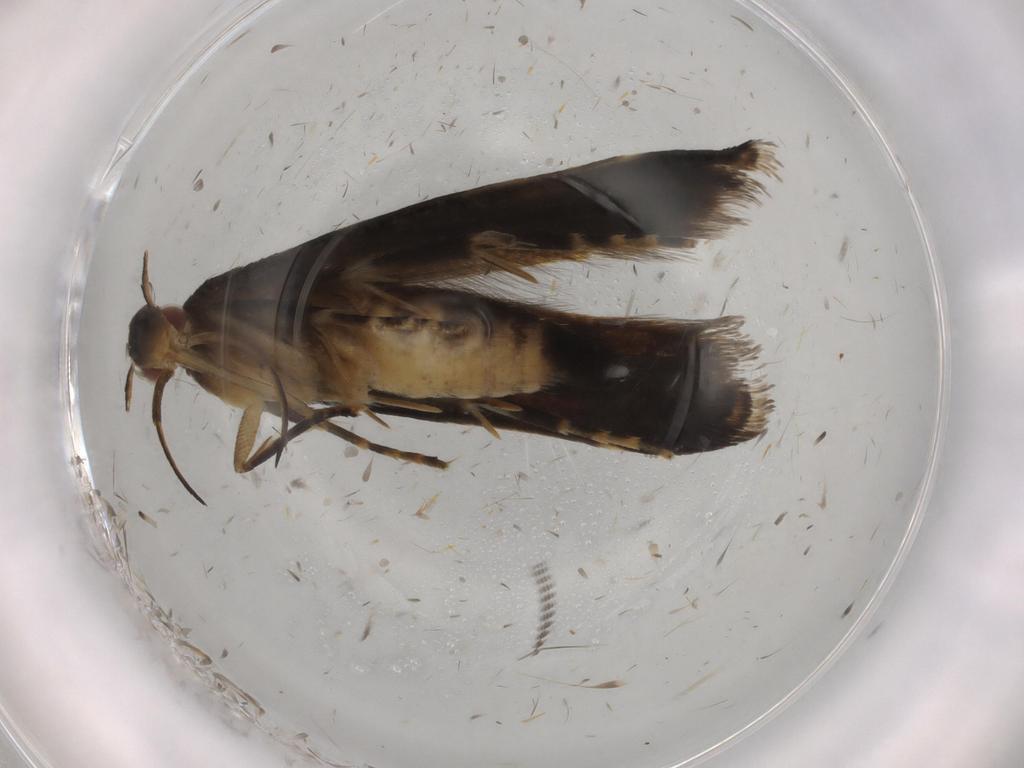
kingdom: Animalia
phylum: Arthropoda
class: Insecta
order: Lepidoptera
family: Gelechiidae
